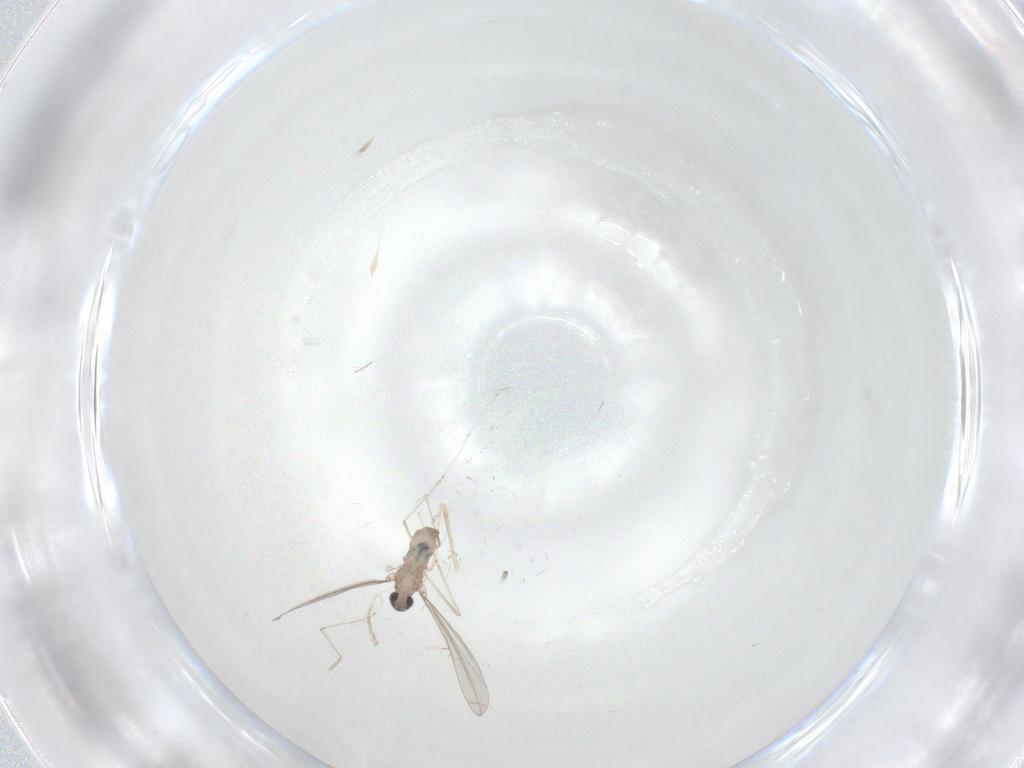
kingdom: Animalia
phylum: Arthropoda
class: Insecta
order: Diptera
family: Cecidomyiidae
